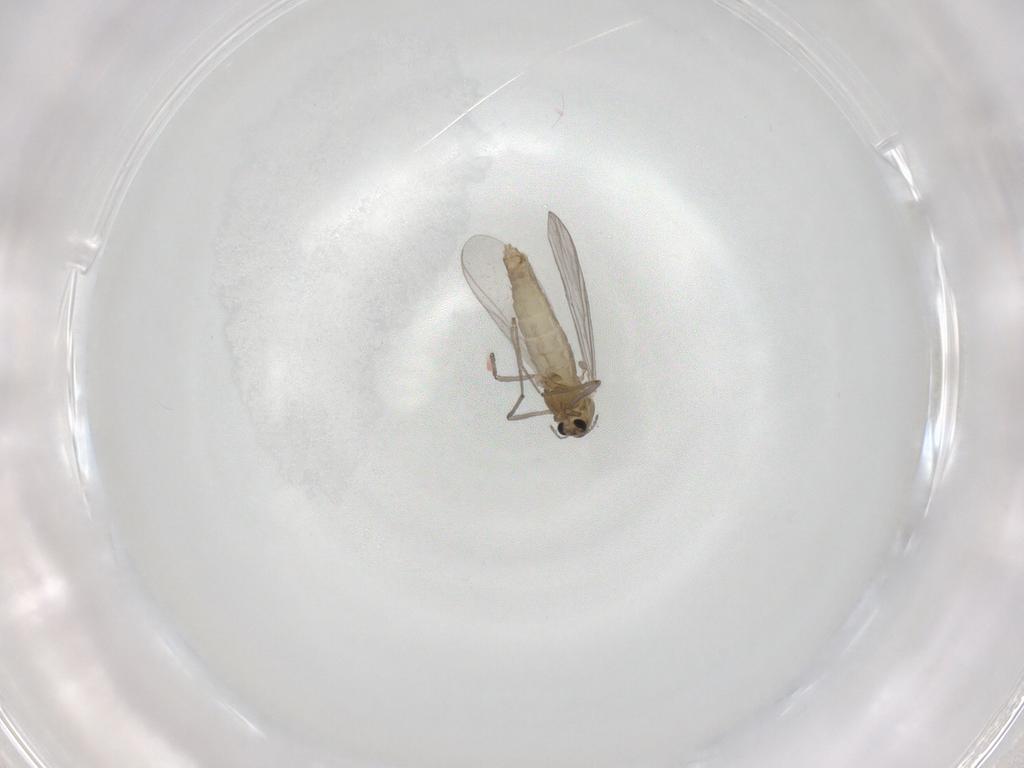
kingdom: Animalia
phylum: Arthropoda
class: Insecta
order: Diptera
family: Chironomidae
